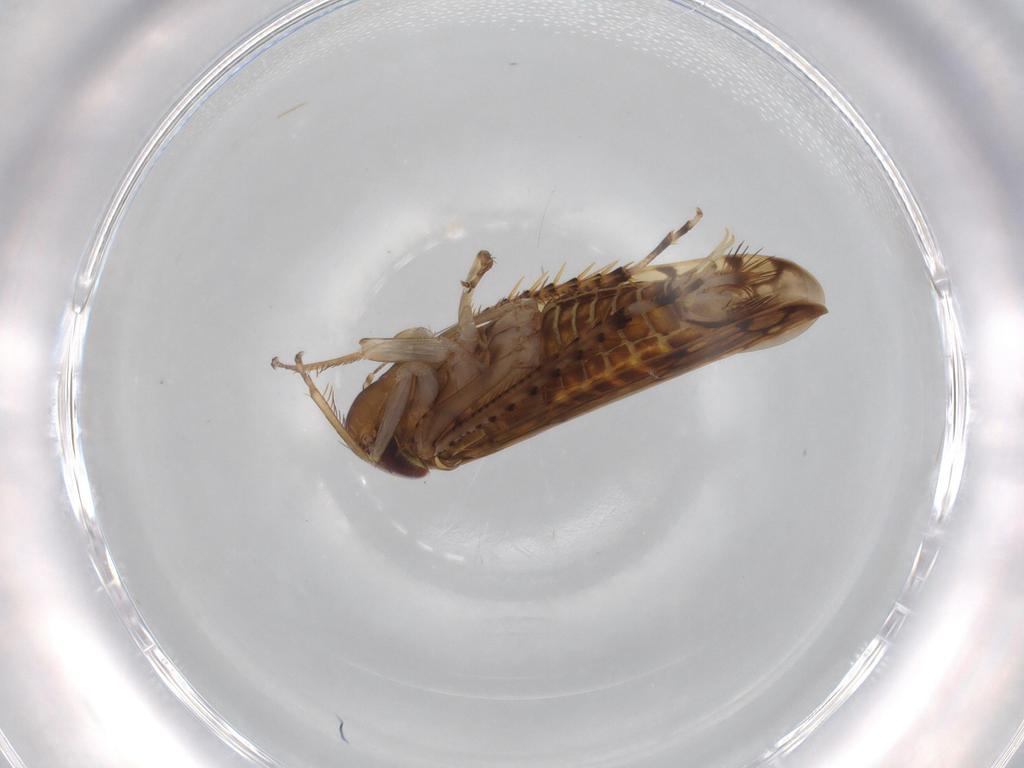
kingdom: Animalia
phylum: Arthropoda
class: Insecta
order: Hemiptera
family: Cicadellidae
